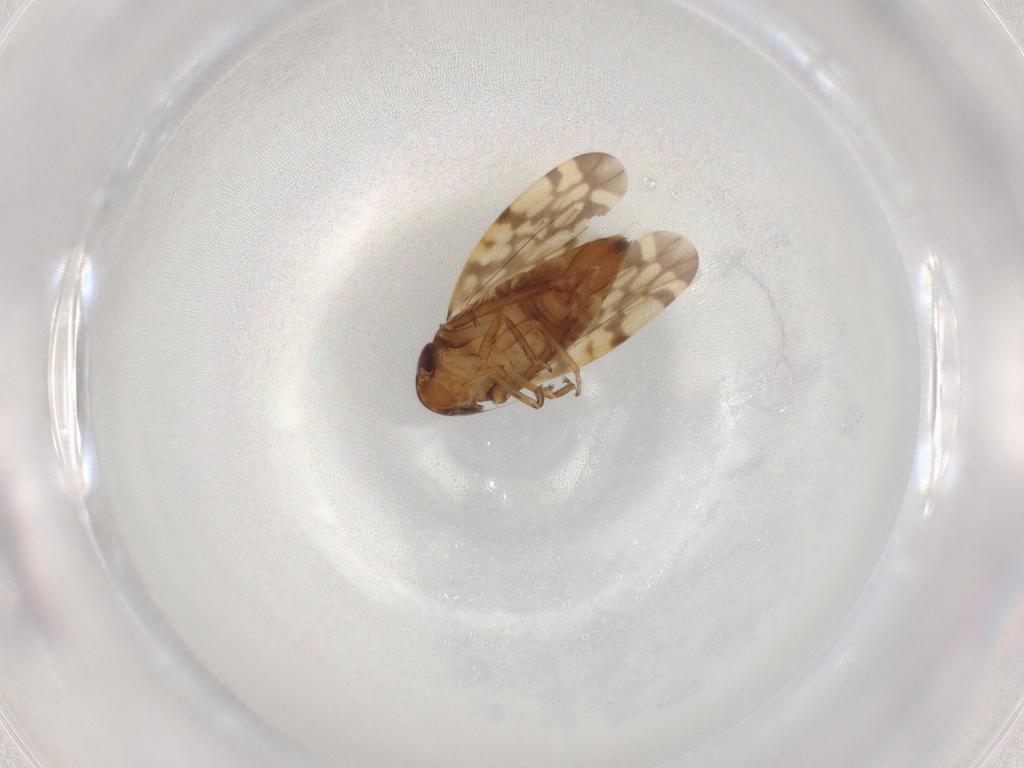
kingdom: Animalia
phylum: Arthropoda
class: Insecta
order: Hemiptera
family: Cicadellidae
